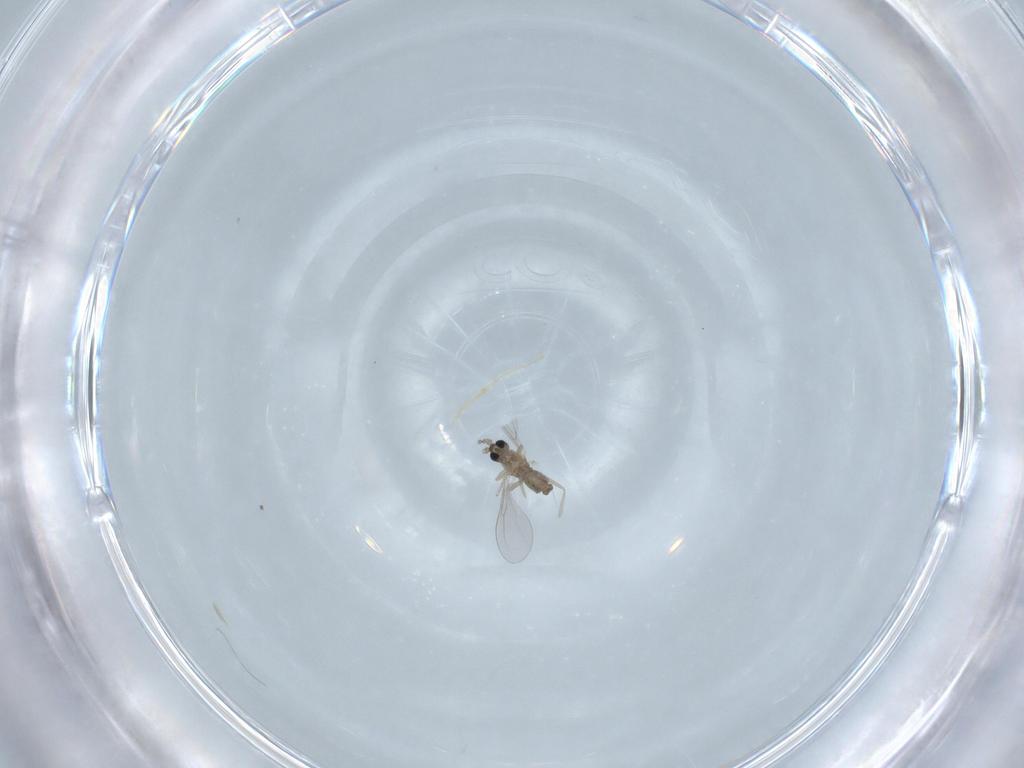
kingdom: Animalia
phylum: Arthropoda
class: Insecta
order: Diptera
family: Cecidomyiidae
